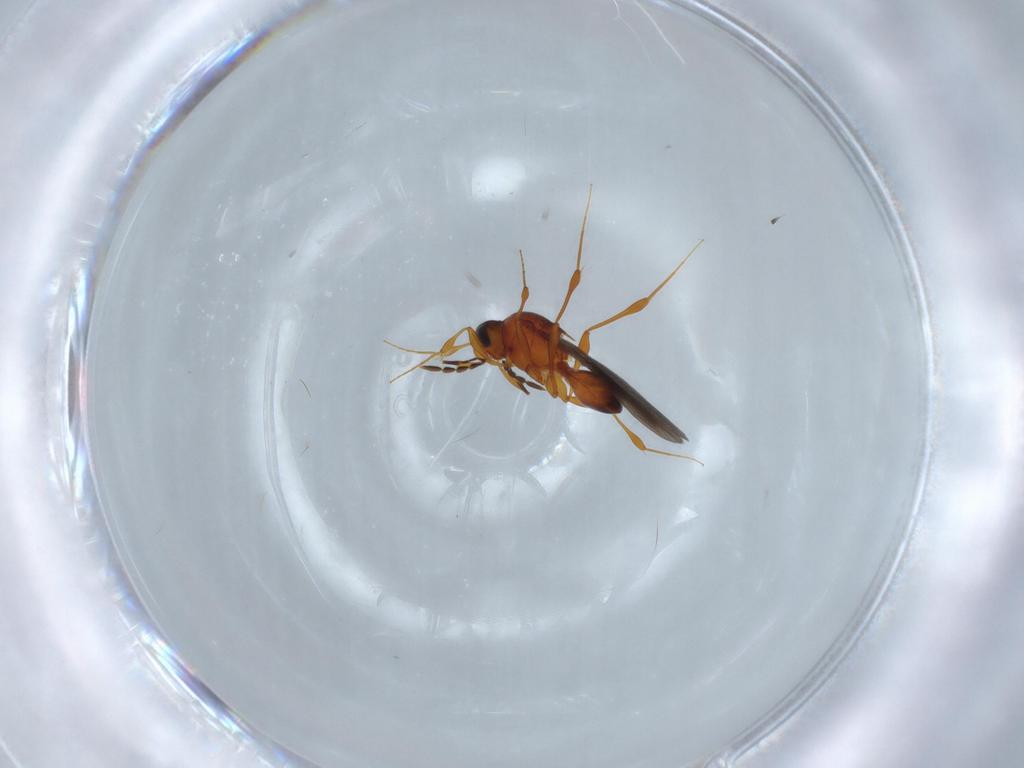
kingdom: Animalia
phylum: Arthropoda
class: Insecta
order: Hymenoptera
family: Platygastridae
